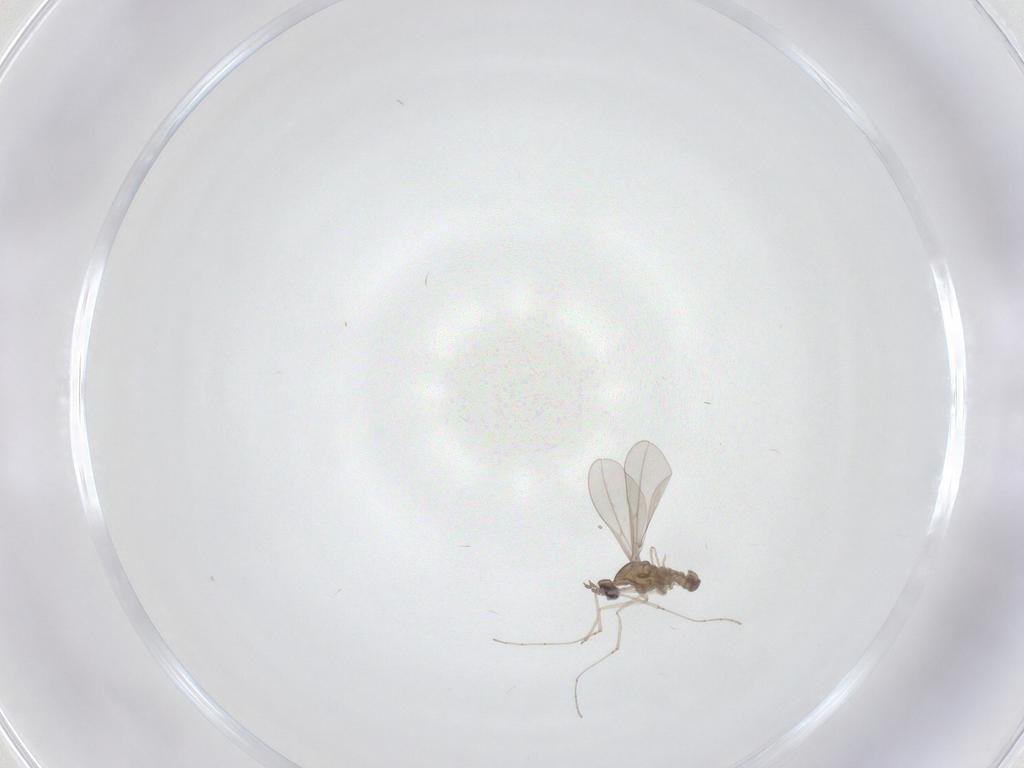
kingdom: Animalia
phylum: Arthropoda
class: Insecta
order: Diptera
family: Cecidomyiidae
